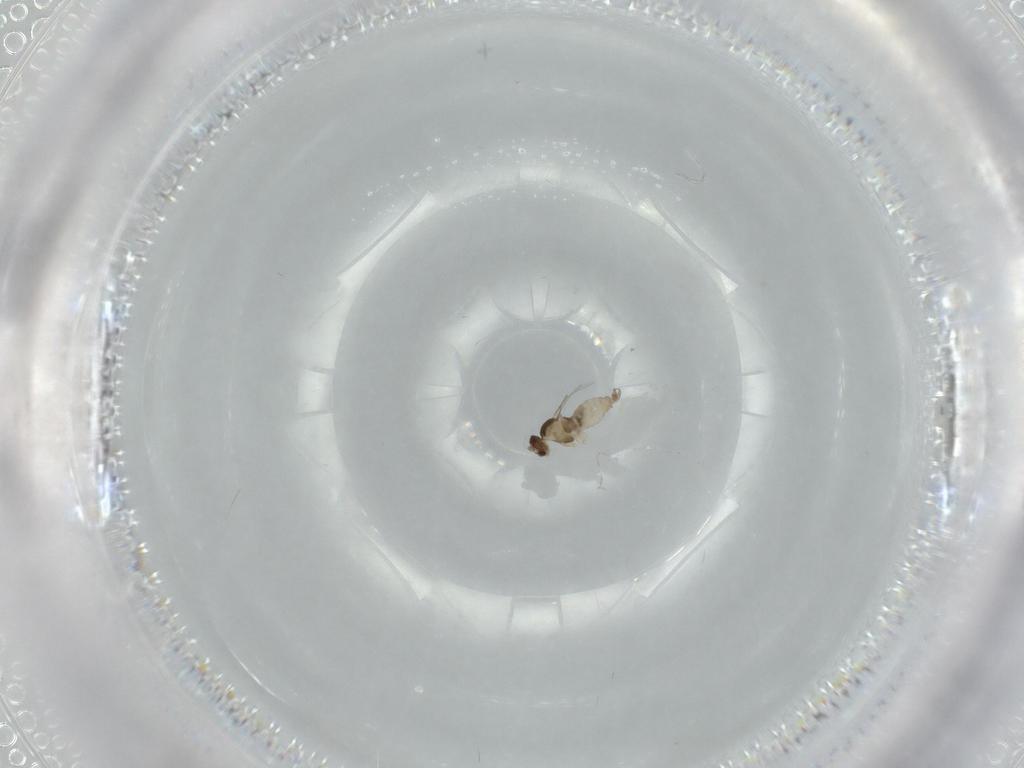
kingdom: Animalia
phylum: Arthropoda
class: Insecta
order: Diptera
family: Cecidomyiidae
